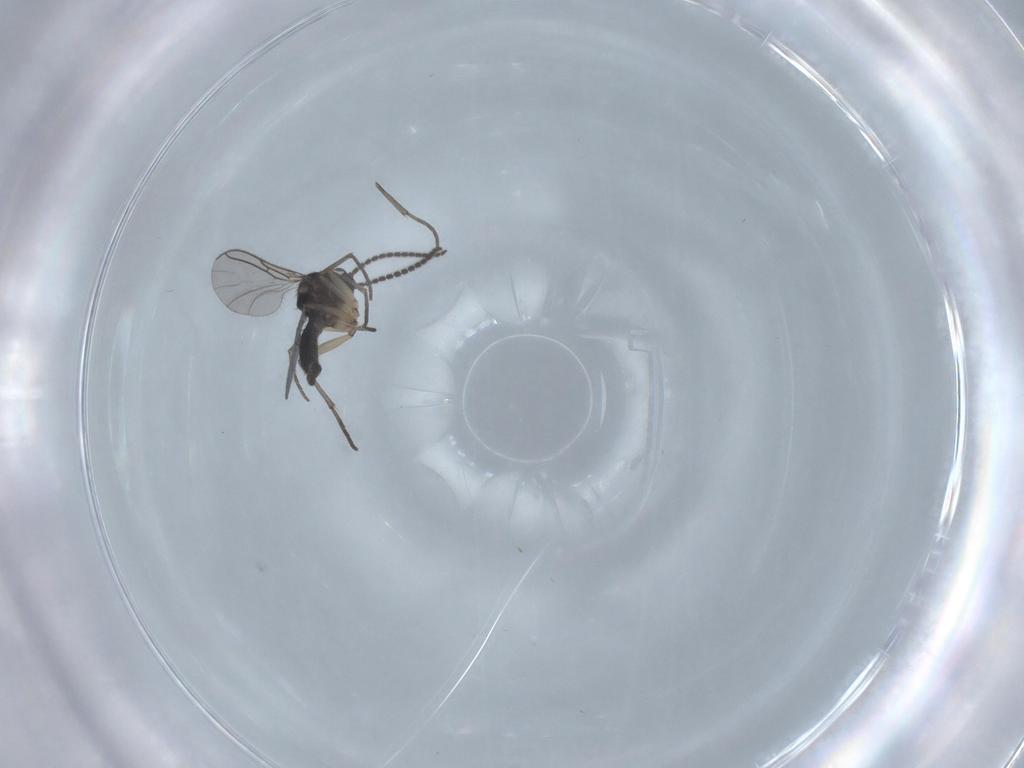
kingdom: Animalia
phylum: Arthropoda
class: Insecta
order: Diptera
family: Sciaridae
